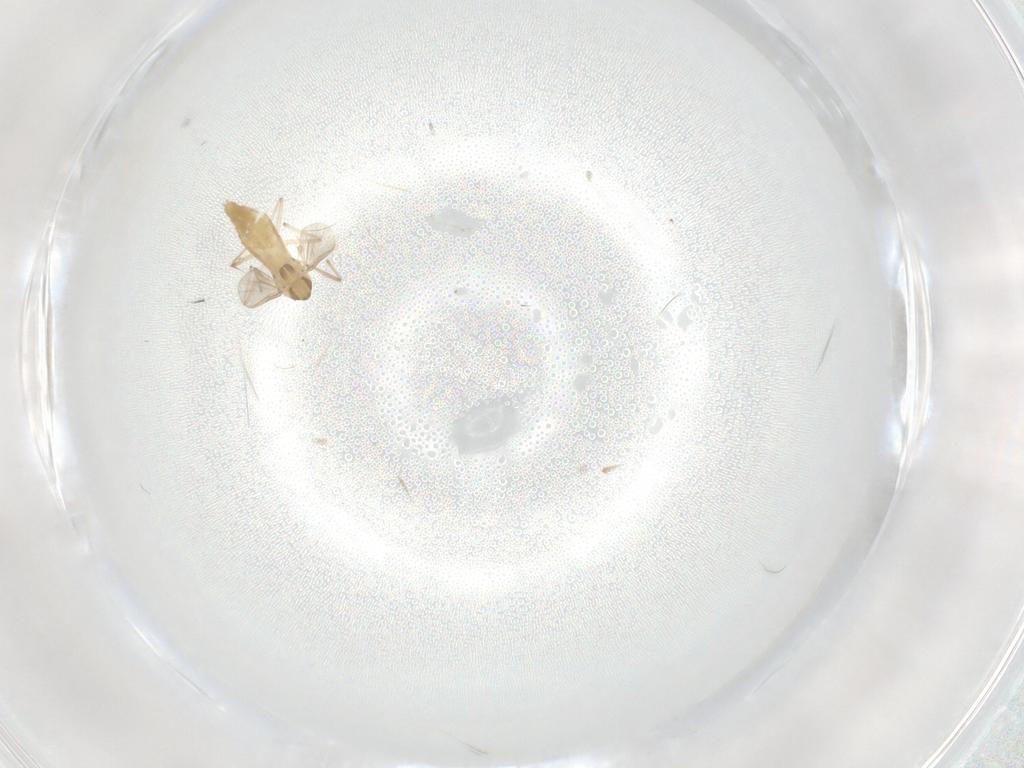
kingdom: Animalia
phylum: Arthropoda
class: Insecta
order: Diptera
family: Chironomidae
